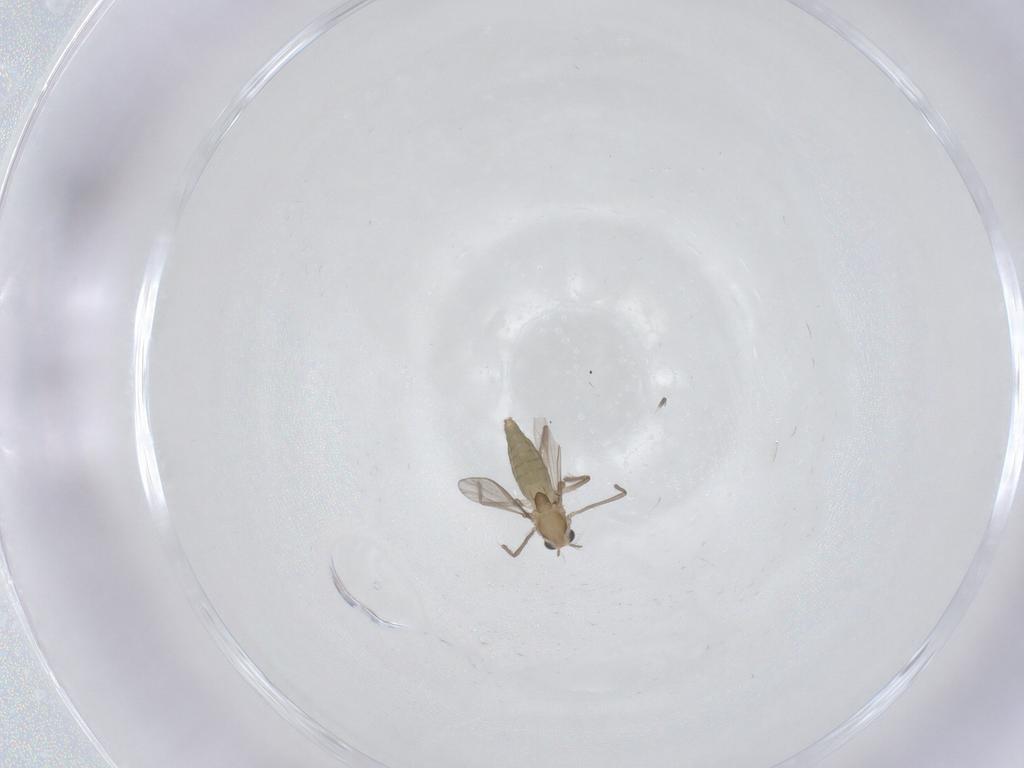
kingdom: Animalia
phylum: Arthropoda
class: Insecta
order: Diptera
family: Chironomidae
